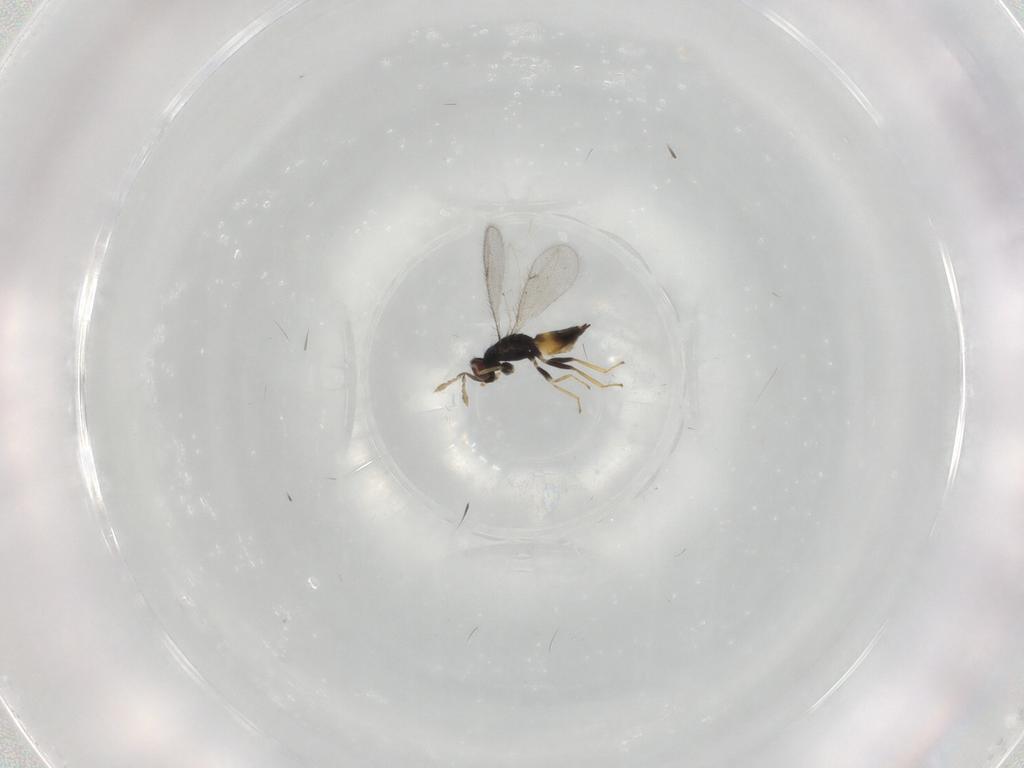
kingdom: Animalia
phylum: Arthropoda
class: Insecta
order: Hymenoptera
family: Eulophidae
